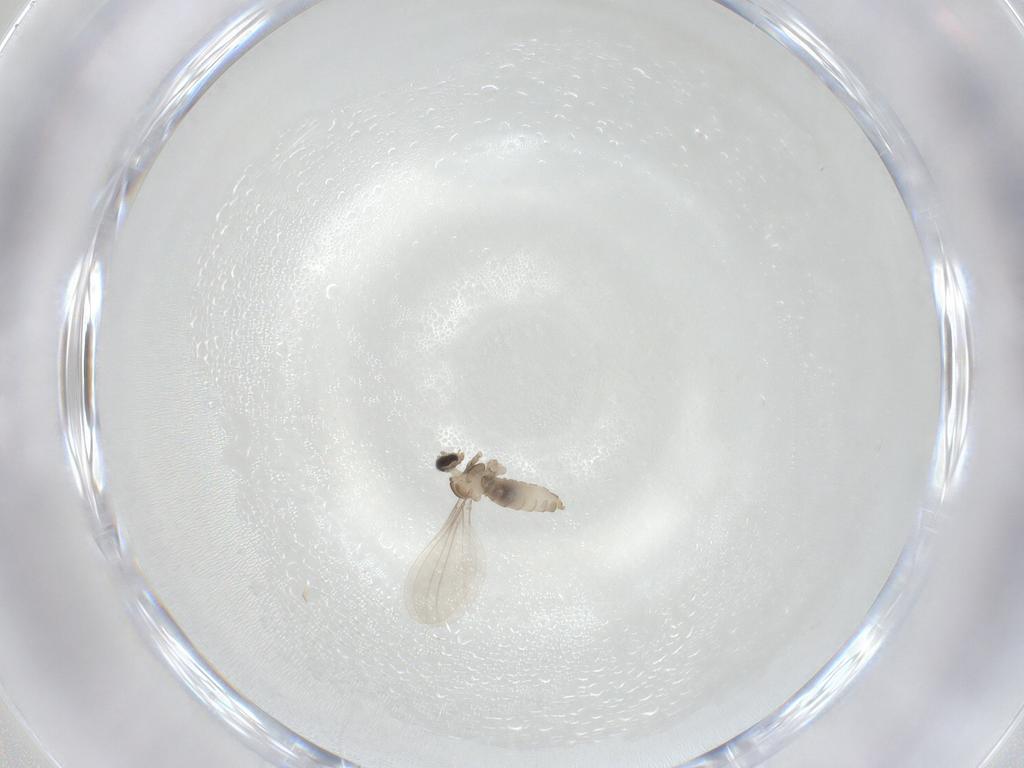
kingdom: Animalia
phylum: Arthropoda
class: Insecta
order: Diptera
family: Cecidomyiidae
